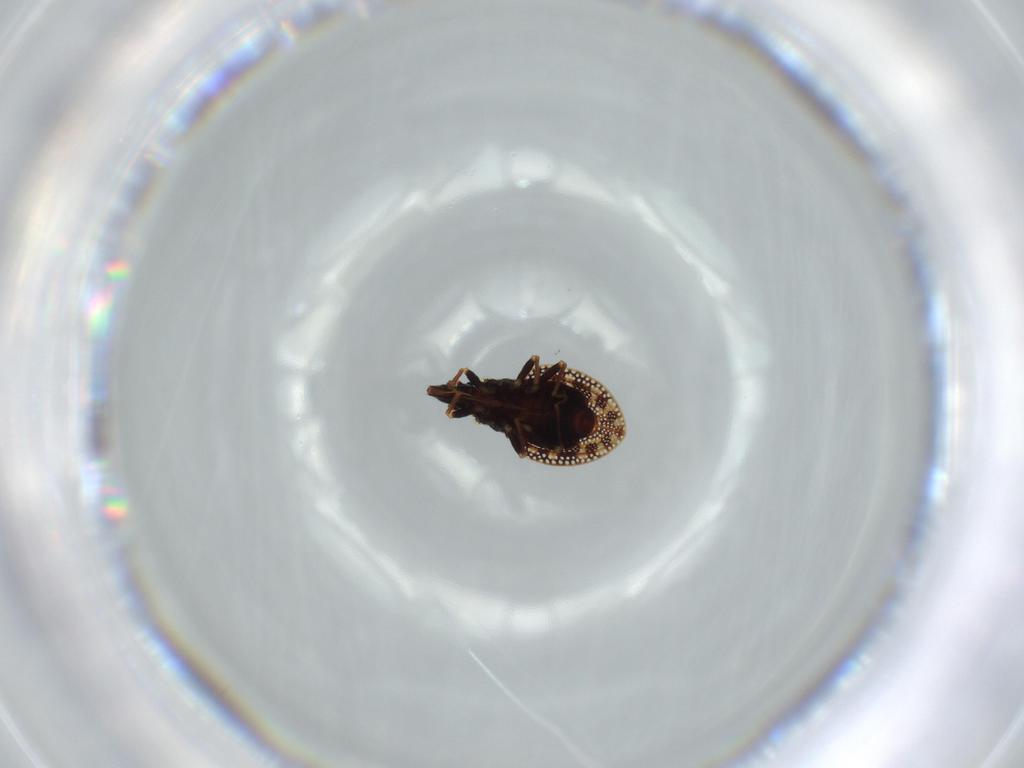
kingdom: Animalia
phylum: Arthropoda
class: Insecta
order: Hemiptera
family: Tingidae
